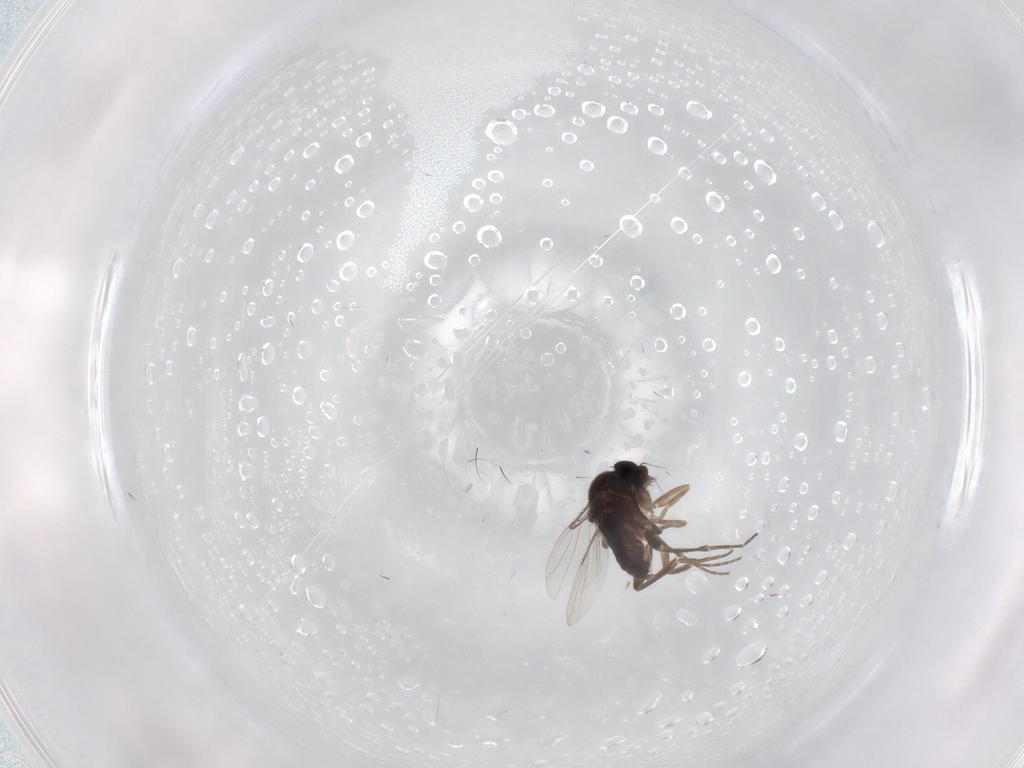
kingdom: Animalia
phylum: Arthropoda
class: Insecta
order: Diptera
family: Phoridae
